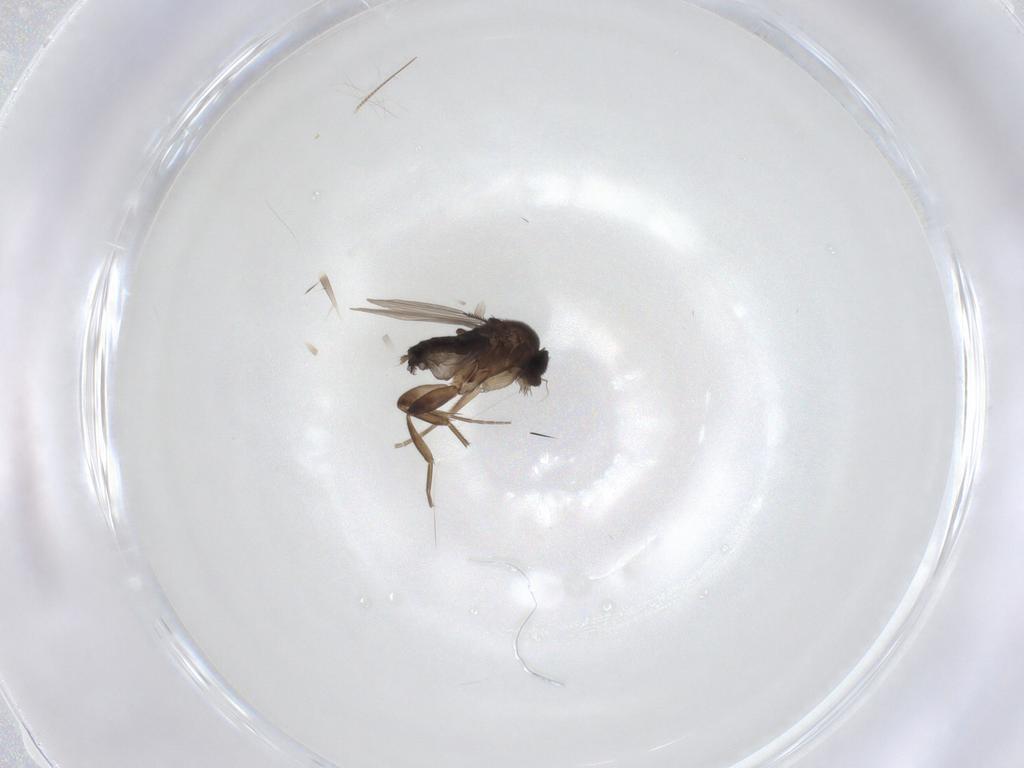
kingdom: Animalia
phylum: Arthropoda
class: Insecta
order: Diptera
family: Phoridae
